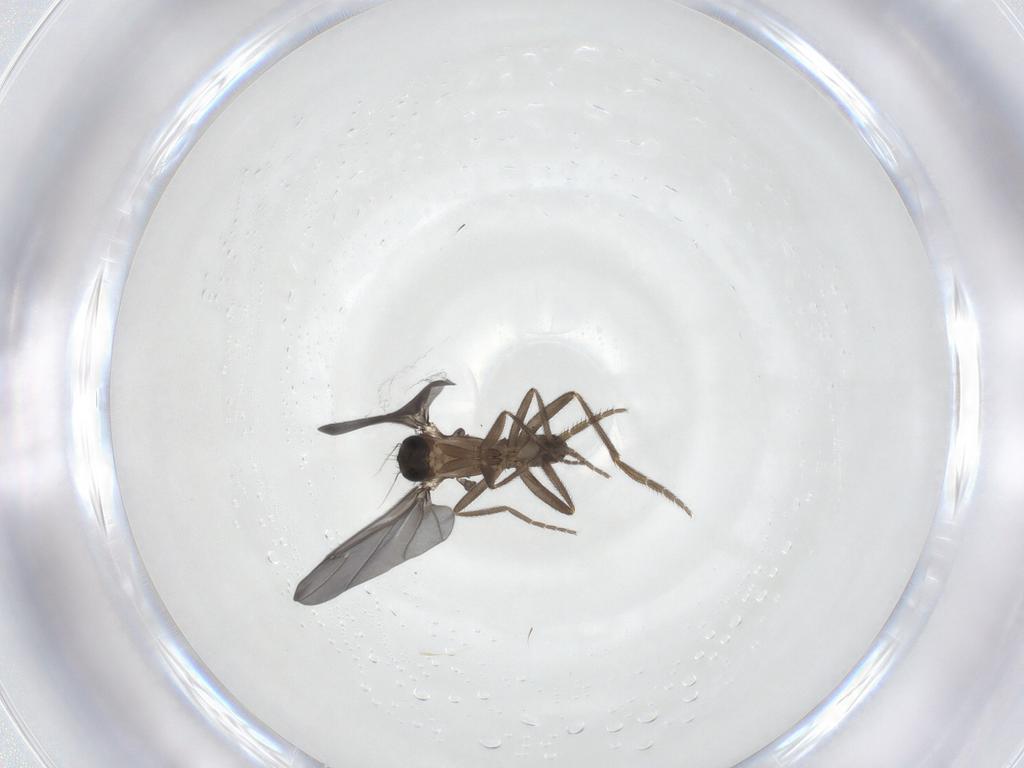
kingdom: Animalia
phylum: Arthropoda
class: Insecta
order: Diptera
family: Phoridae
